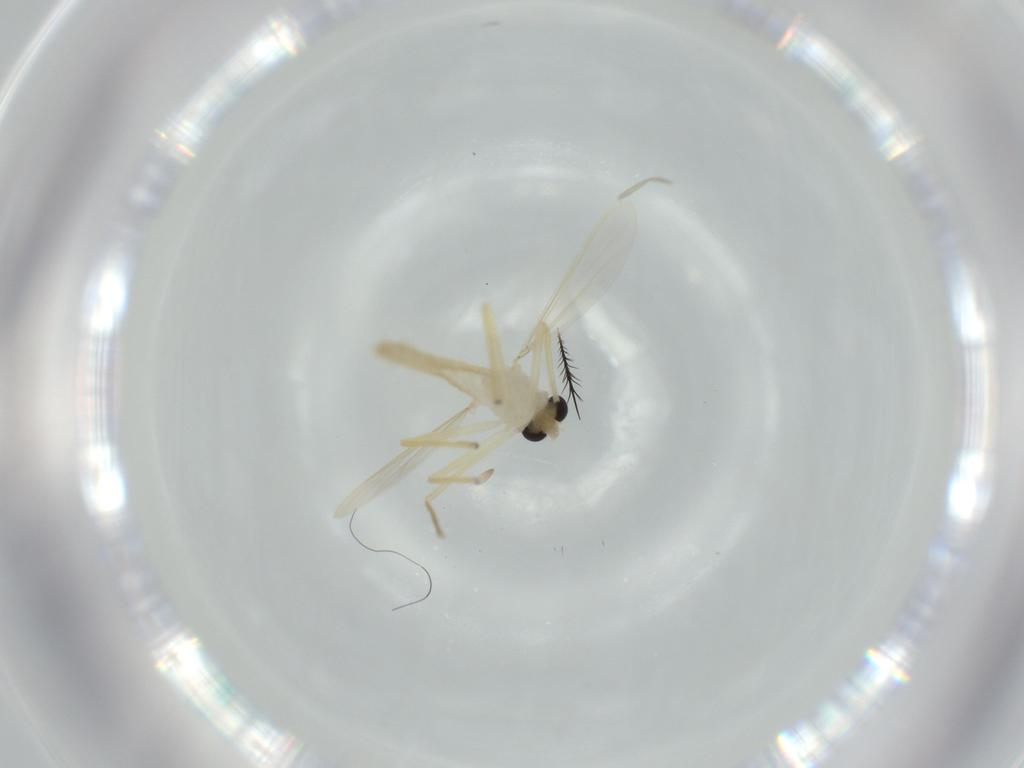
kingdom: Animalia
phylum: Arthropoda
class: Insecta
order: Diptera
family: Chironomidae
